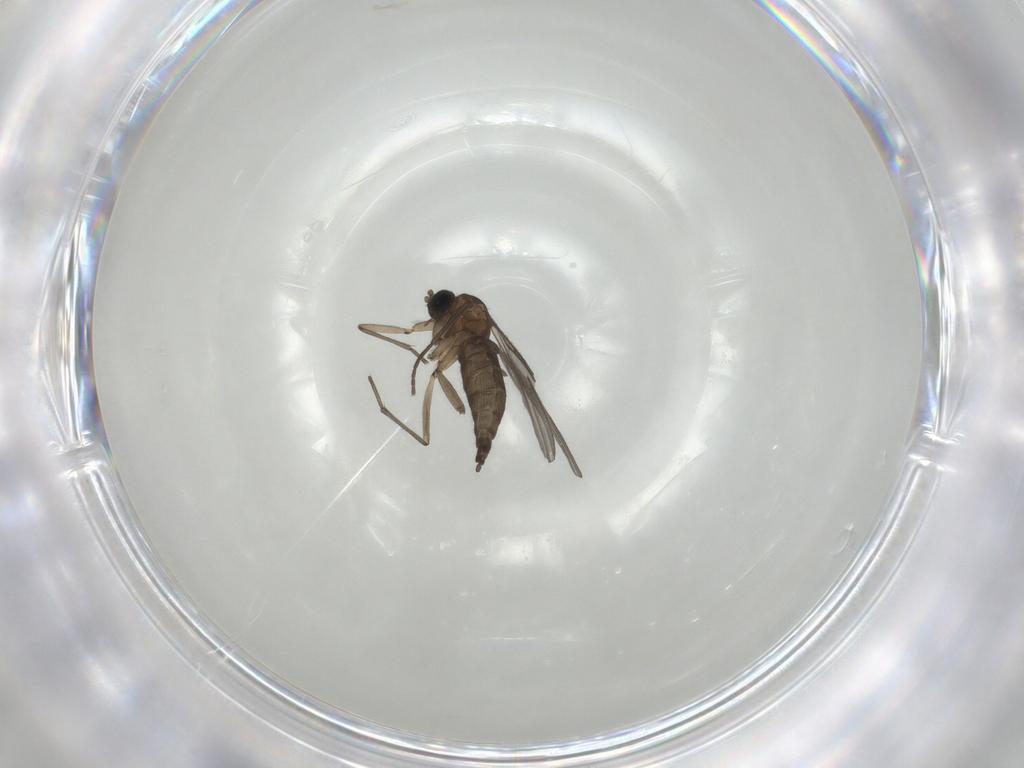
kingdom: Animalia
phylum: Arthropoda
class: Insecta
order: Diptera
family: Sciaridae
